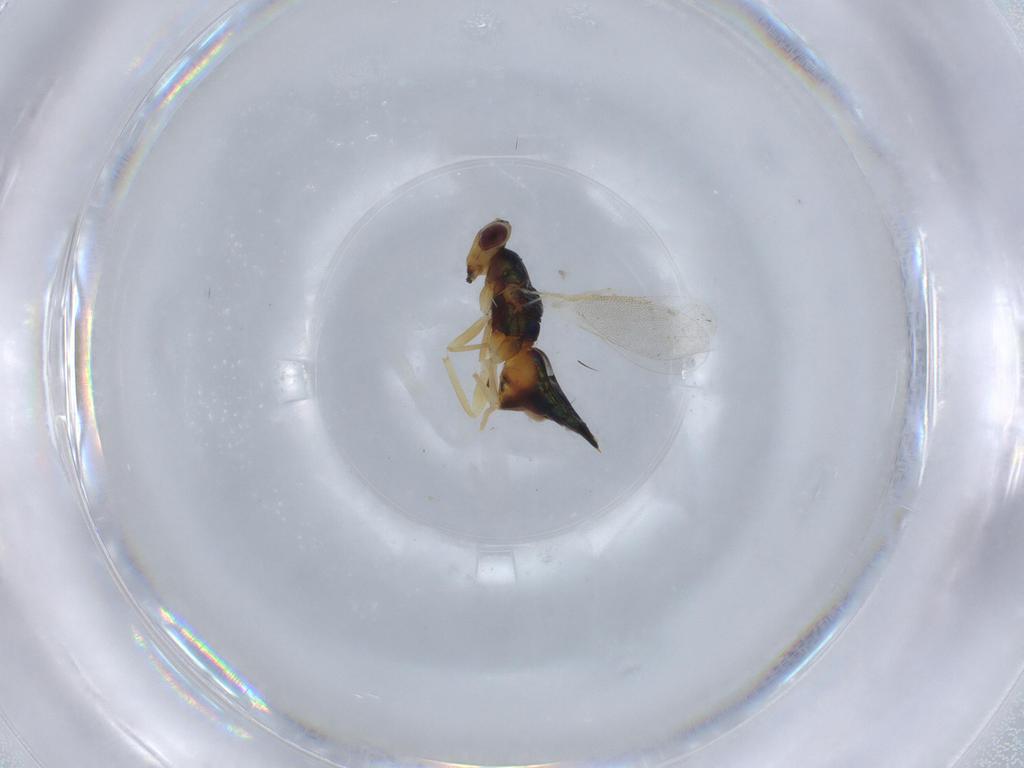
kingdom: Animalia
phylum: Arthropoda
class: Insecta
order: Hymenoptera
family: Eulophidae
